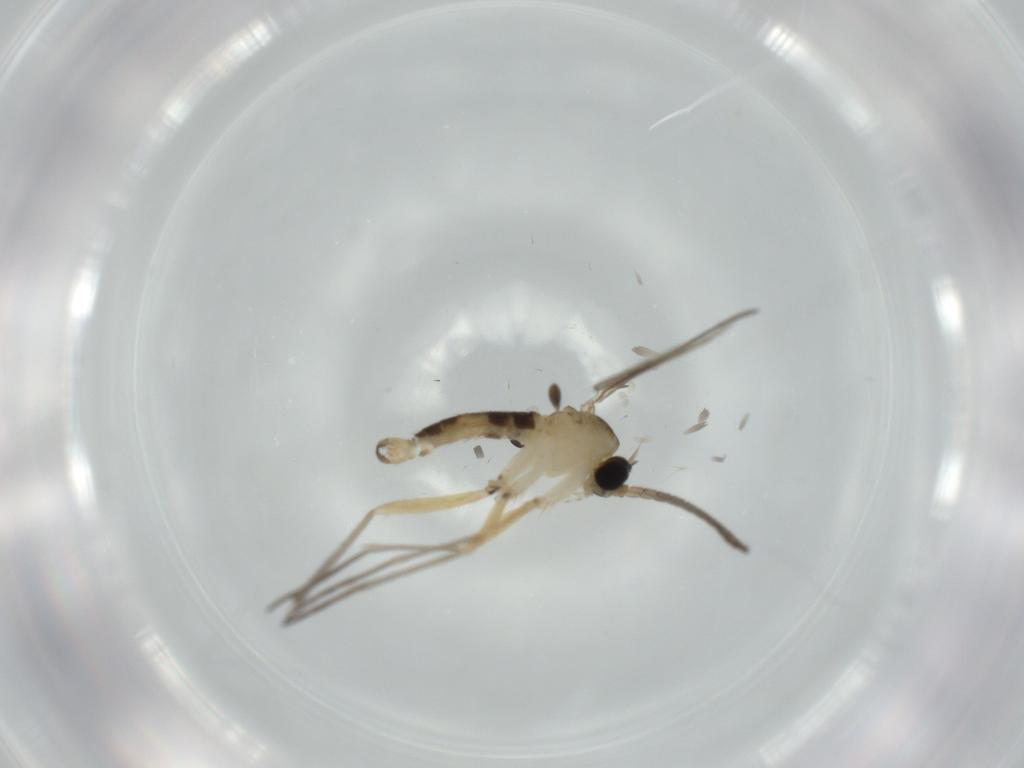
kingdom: Animalia
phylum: Arthropoda
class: Insecta
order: Diptera
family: Sciaridae
